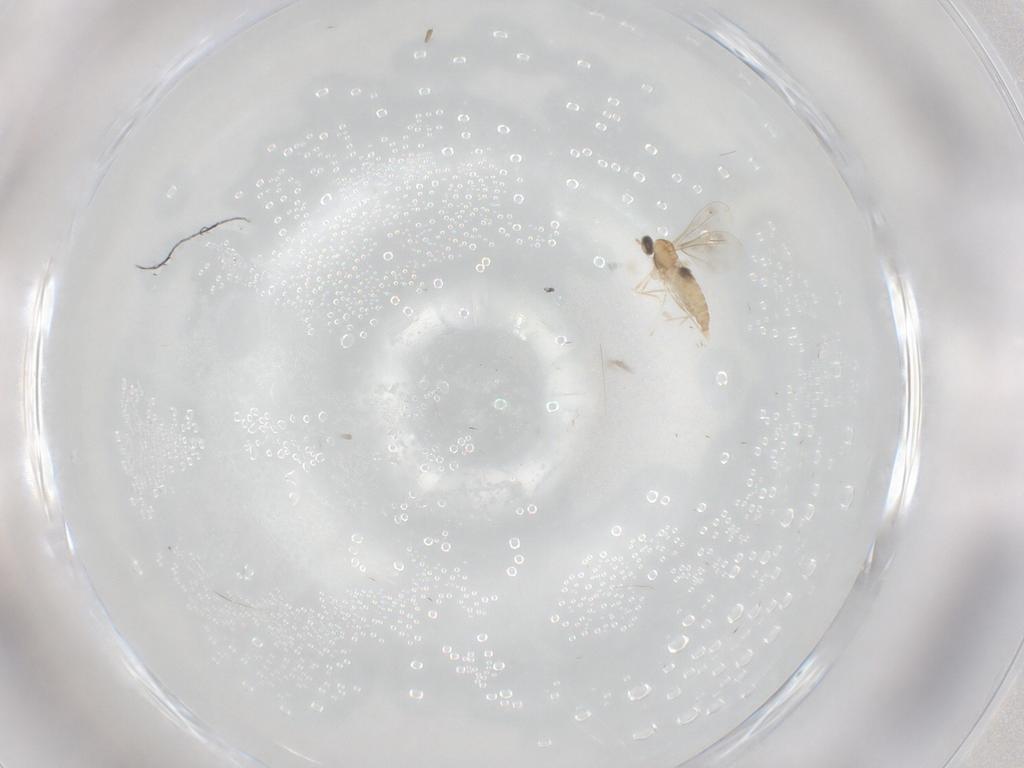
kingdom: Animalia
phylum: Arthropoda
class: Insecta
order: Diptera
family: Cecidomyiidae
